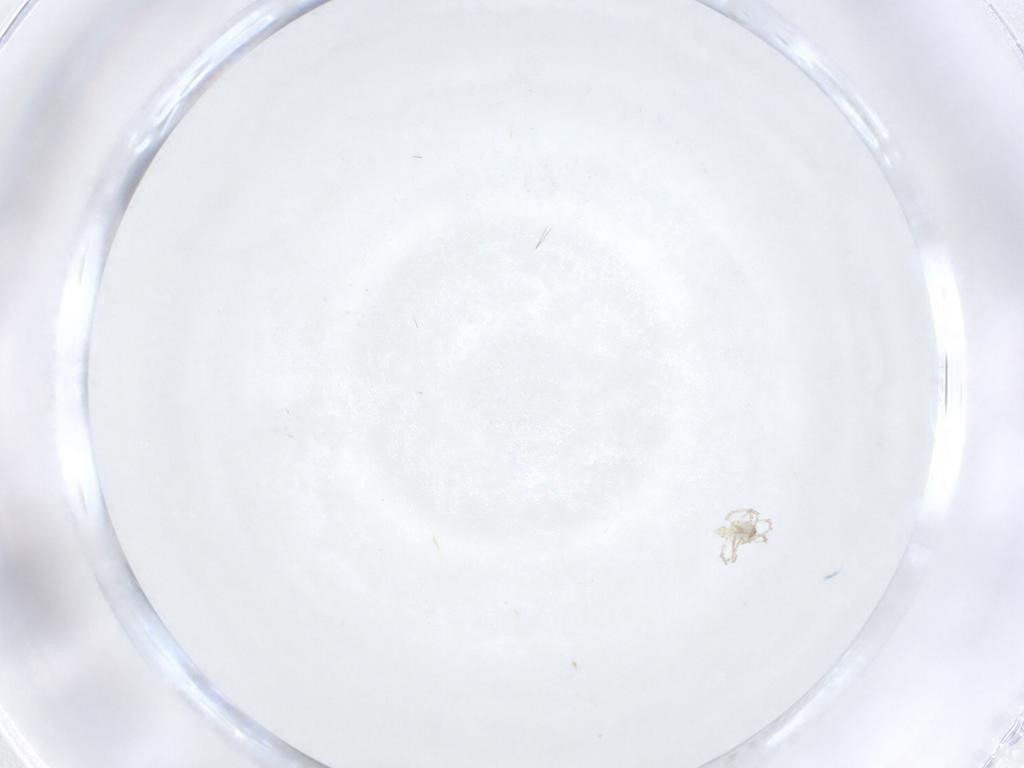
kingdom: Animalia
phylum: Arthropoda
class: Arachnida
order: Trombidiformes
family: Erythraeidae
